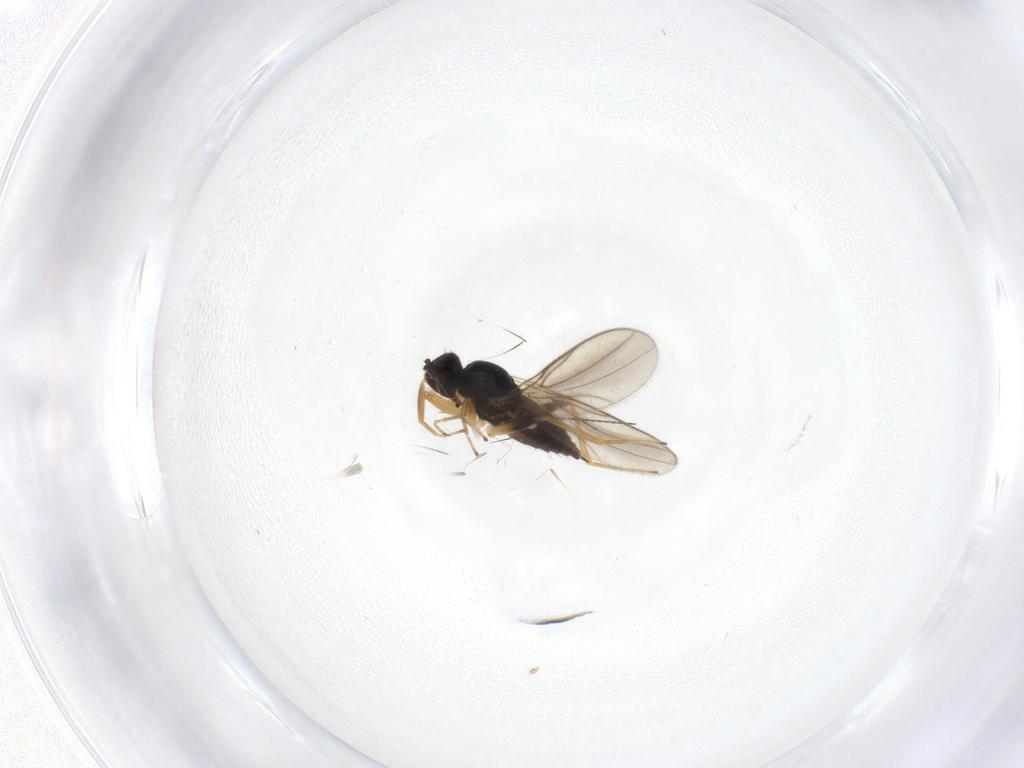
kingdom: Animalia
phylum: Arthropoda
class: Insecta
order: Diptera
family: Hybotidae
